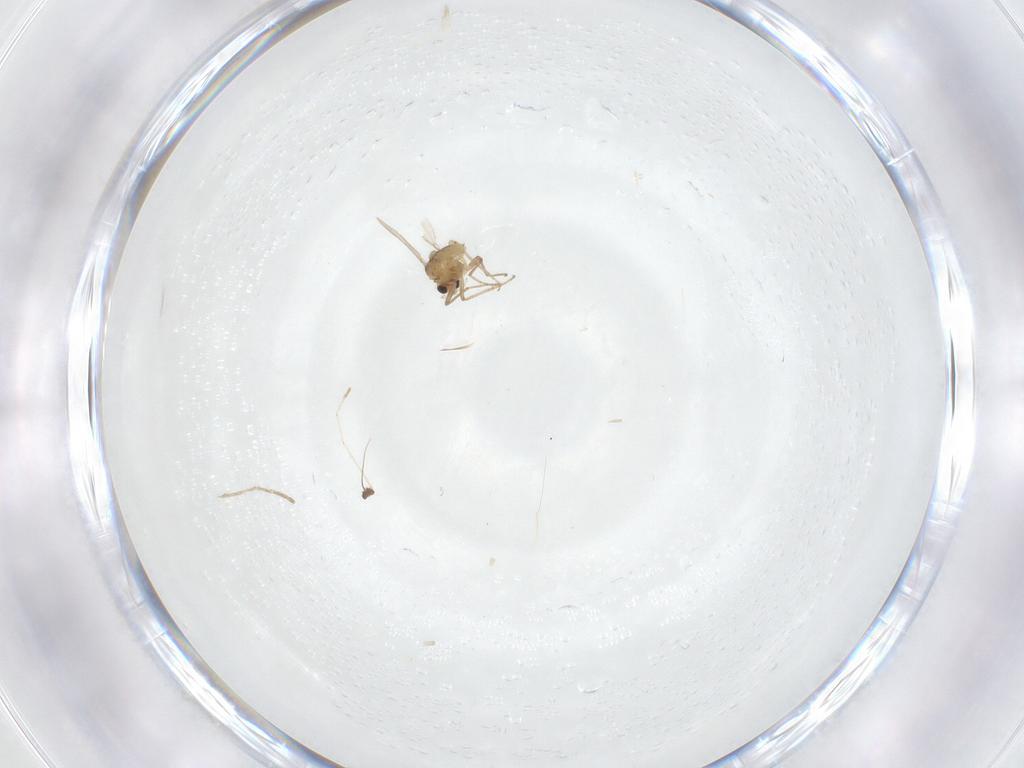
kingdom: Animalia
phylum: Arthropoda
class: Insecta
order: Diptera
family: Chironomidae
